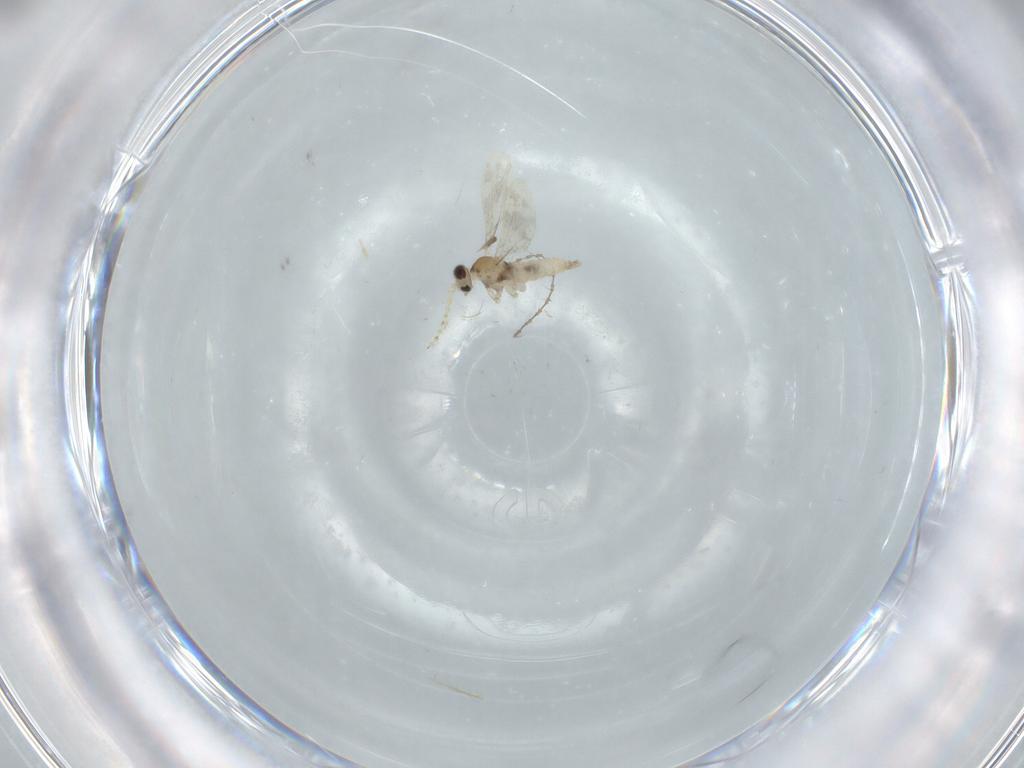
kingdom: Animalia
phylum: Arthropoda
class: Insecta
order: Diptera
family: Cecidomyiidae
